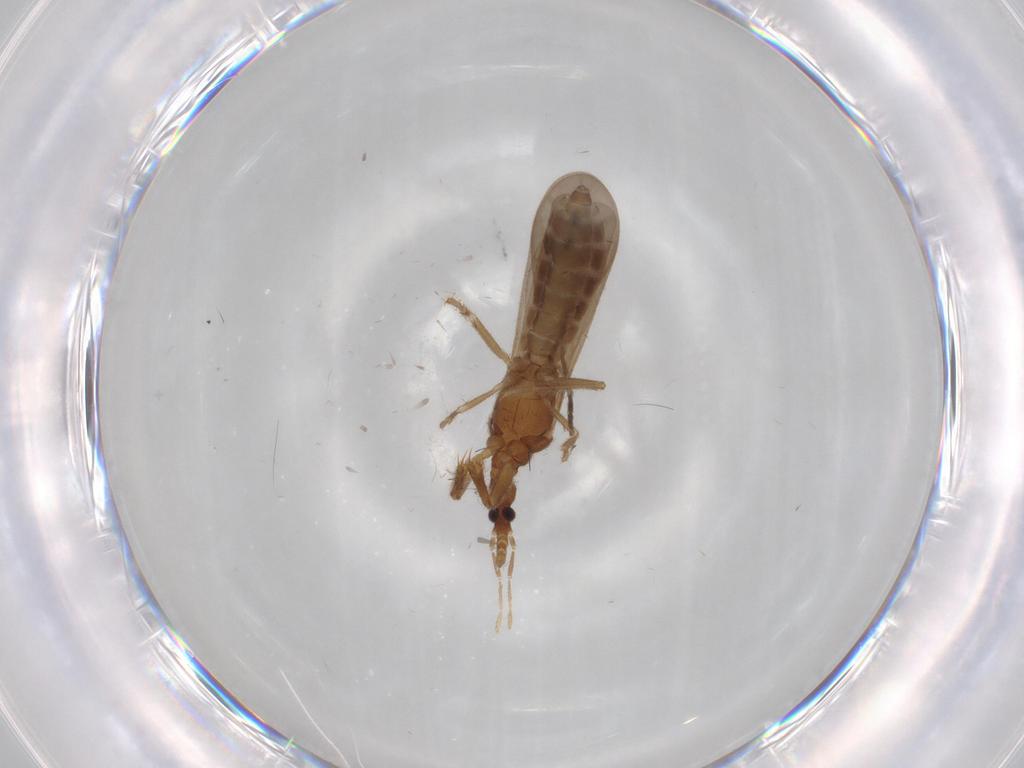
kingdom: Animalia
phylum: Arthropoda
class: Insecta
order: Hemiptera
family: Enicocephalidae
